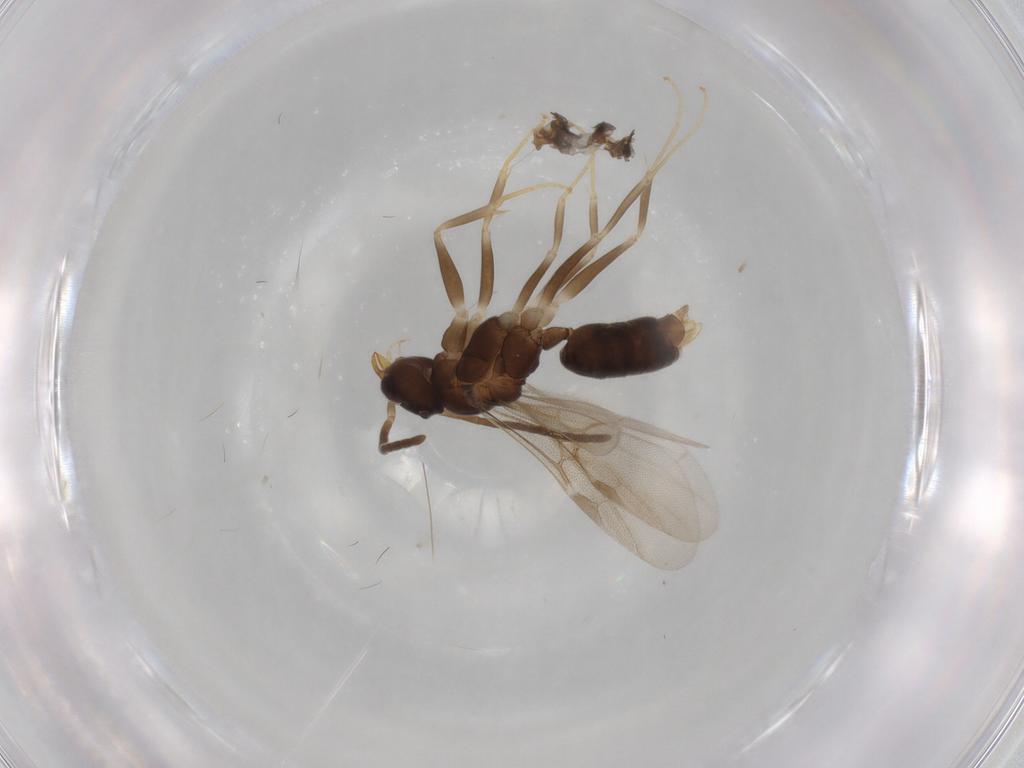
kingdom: Animalia
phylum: Arthropoda
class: Insecta
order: Hymenoptera
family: Formicidae
